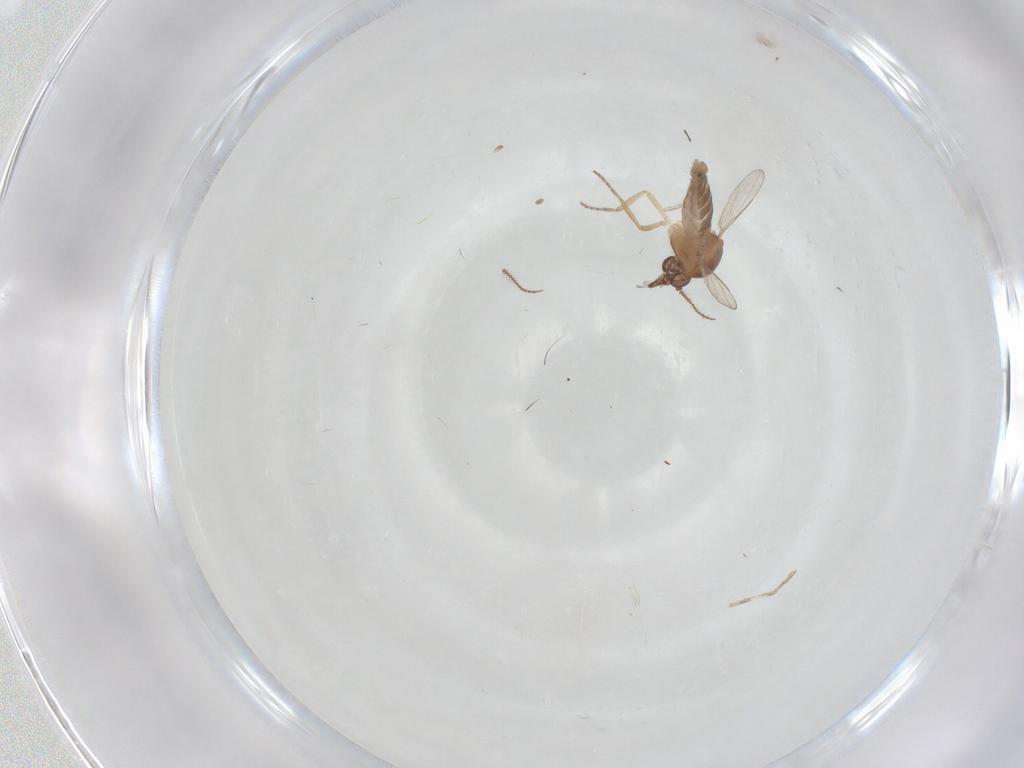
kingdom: Animalia
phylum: Arthropoda
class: Insecta
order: Diptera
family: Ceratopogonidae
